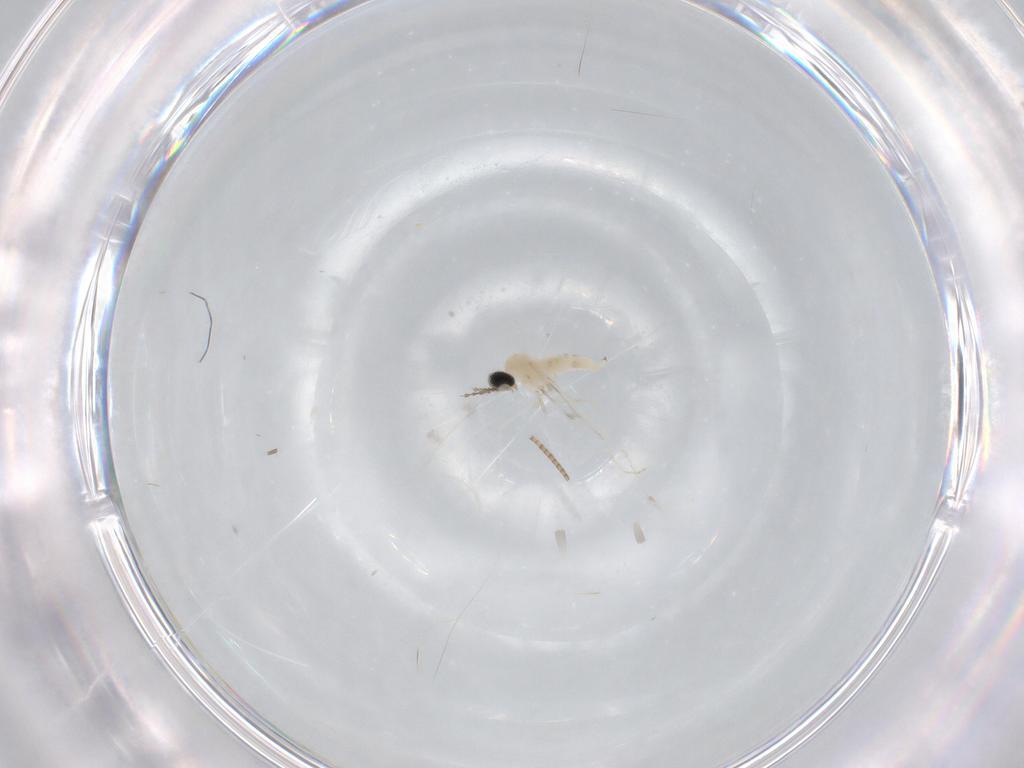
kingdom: Animalia
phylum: Arthropoda
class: Insecta
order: Diptera
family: Cecidomyiidae
